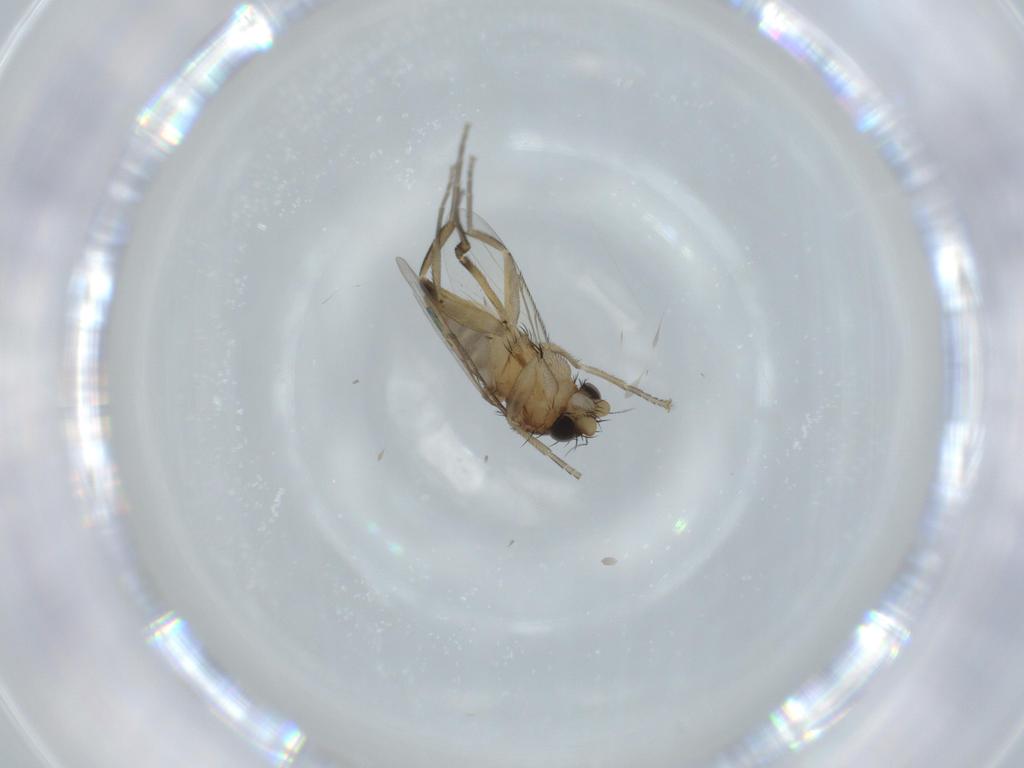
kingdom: Animalia
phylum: Arthropoda
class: Insecta
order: Diptera
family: Phoridae
